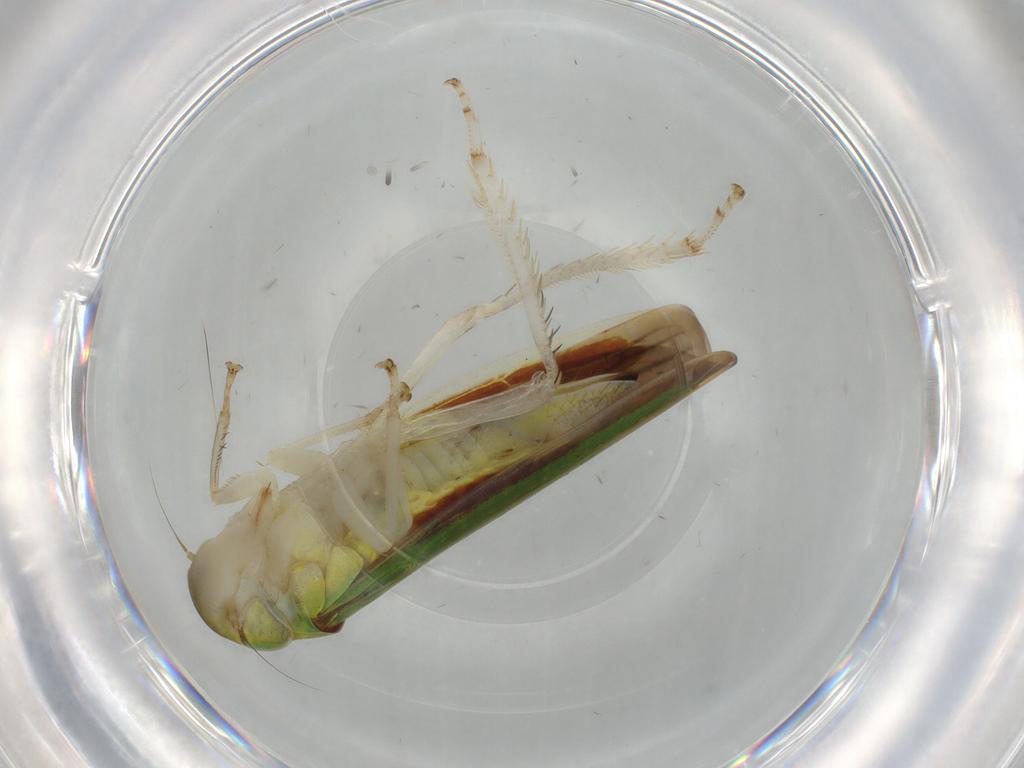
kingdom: Animalia
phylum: Arthropoda
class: Insecta
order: Hemiptera
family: Cicadellidae
